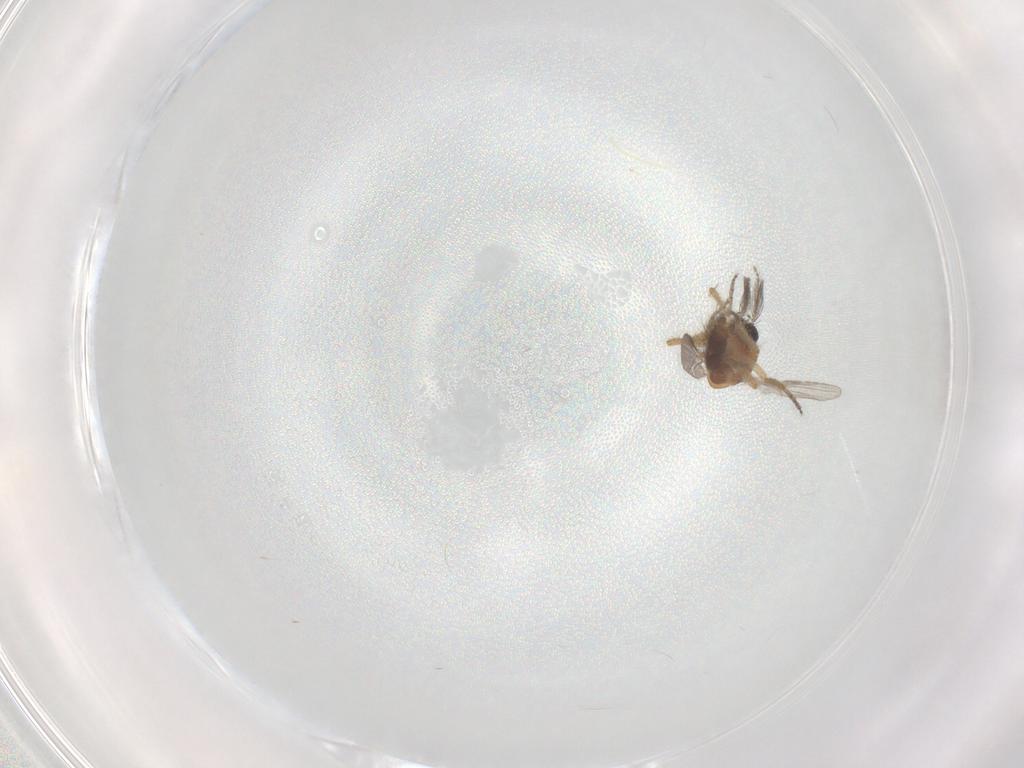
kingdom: Animalia
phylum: Arthropoda
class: Insecta
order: Diptera
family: Ceratopogonidae
